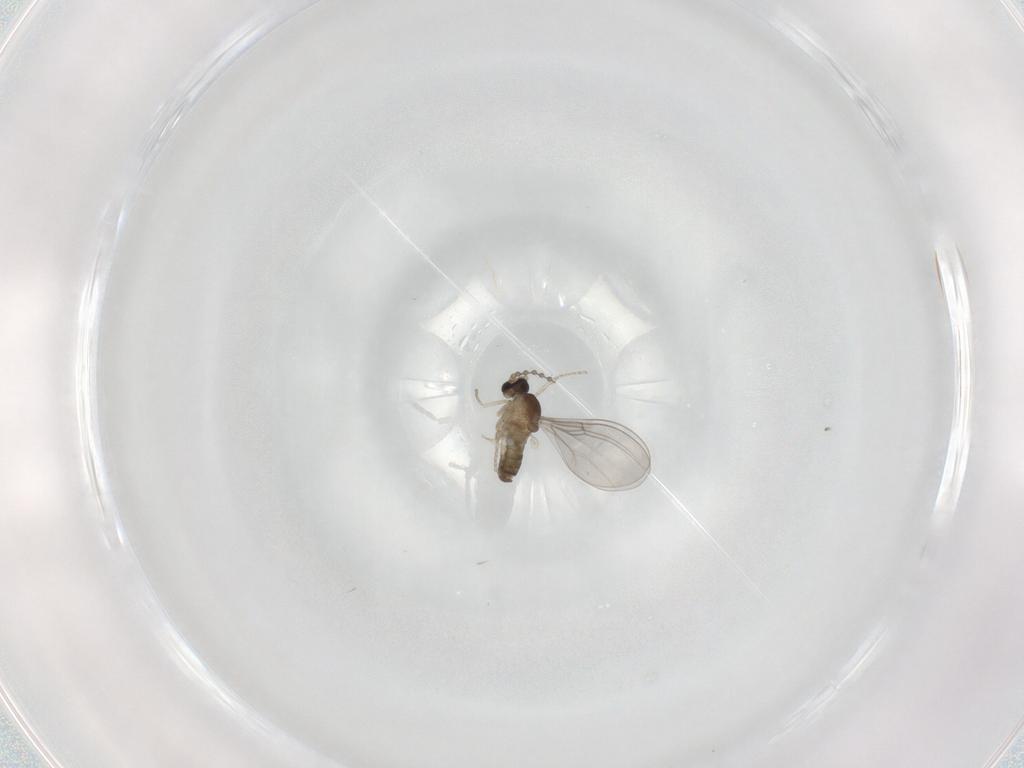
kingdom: Animalia
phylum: Arthropoda
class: Insecta
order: Diptera
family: Cecidomyiidae
